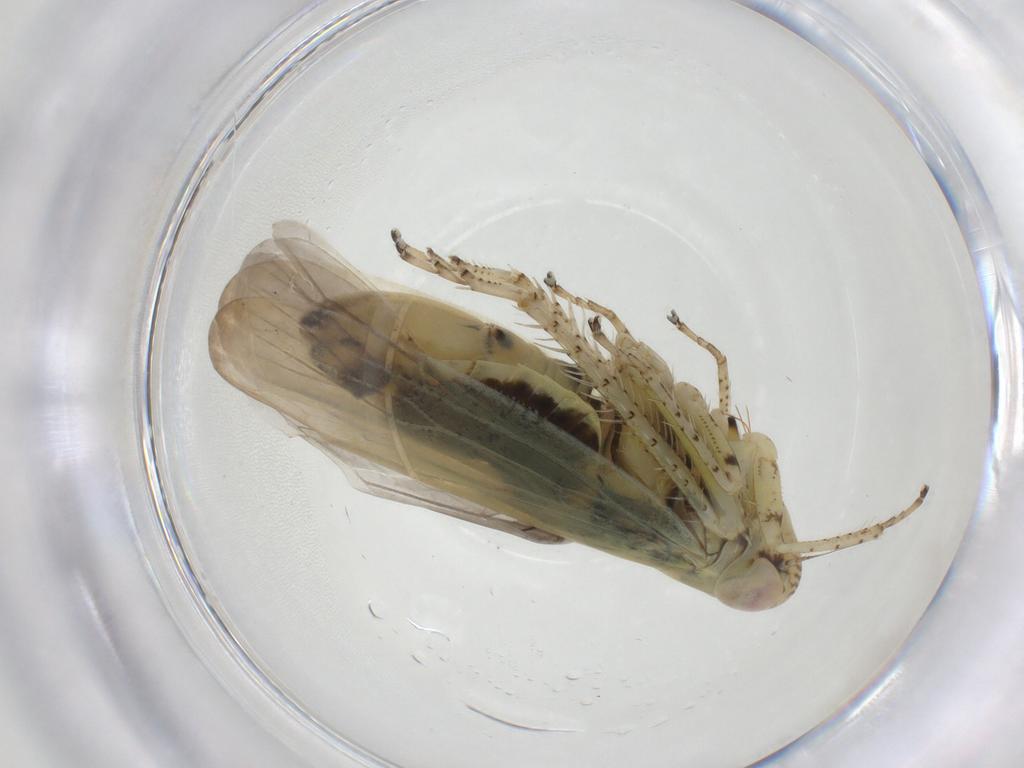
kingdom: Animalia
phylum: Arthropoda
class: Insecta
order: Hemiptera
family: Cicadellidae
